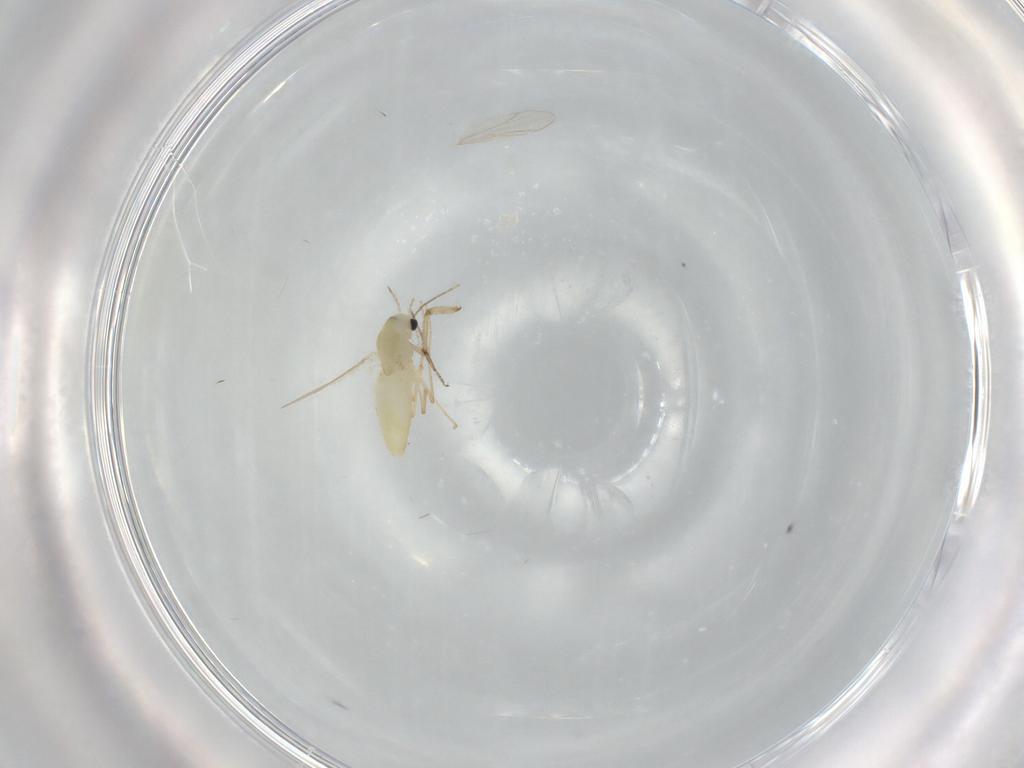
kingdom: Animalia
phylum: Arthropoda
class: Insecta
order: Diptera
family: Chironomidae
